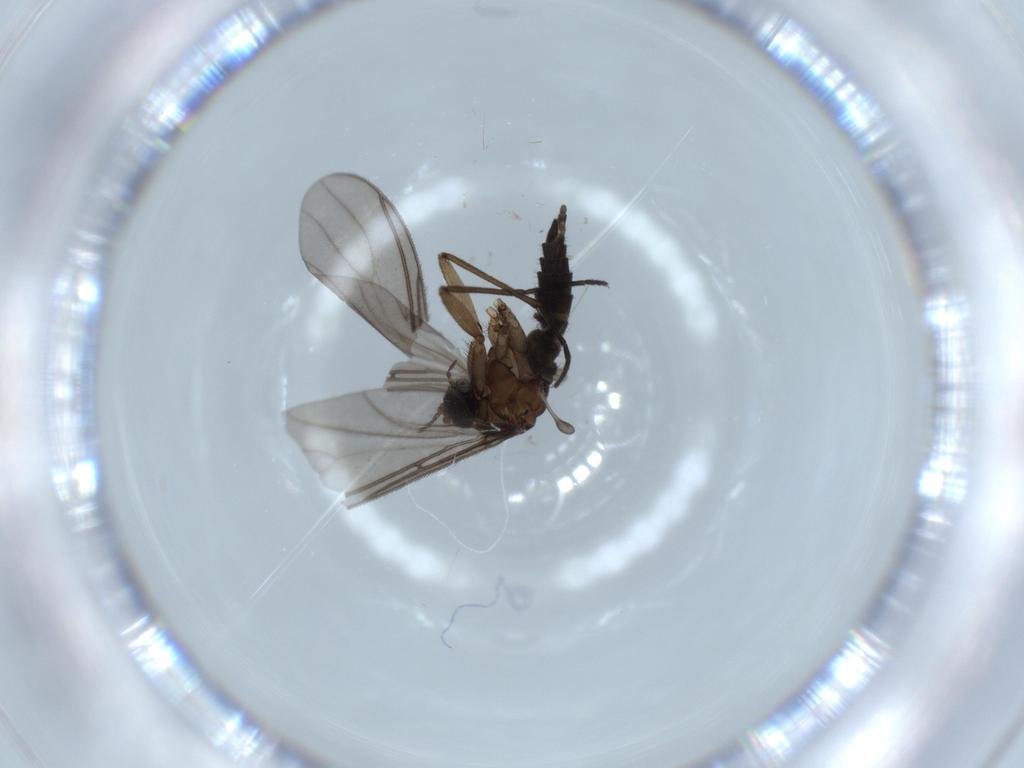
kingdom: Animalia
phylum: Arthropoda
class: Insecta
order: Diptera
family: Sciaridae
